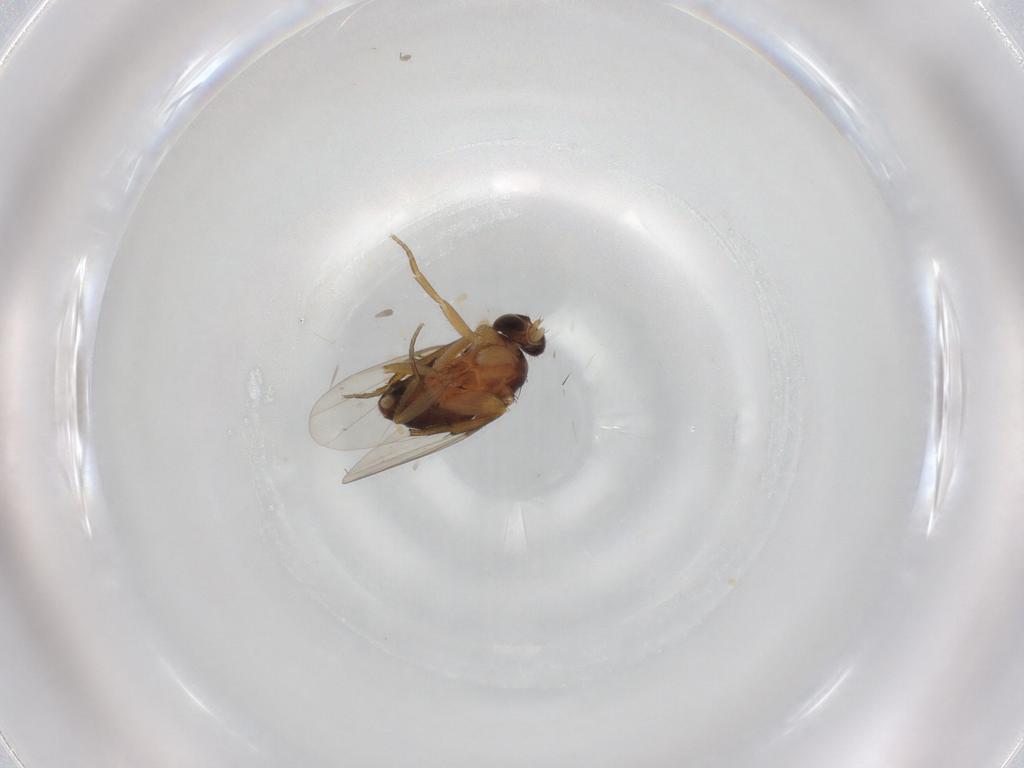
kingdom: Animalia
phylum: Arthropoda
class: Insecta
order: Diptera
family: Phoridae
